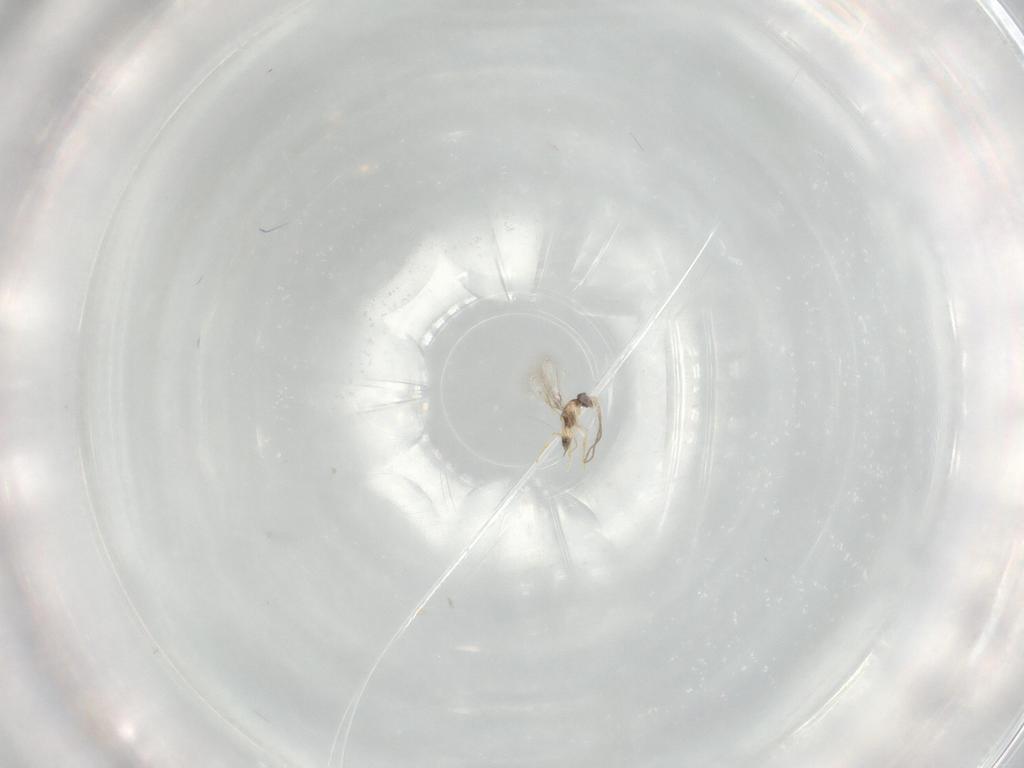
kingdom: Animalia
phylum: Arthropoda
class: Insecta
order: Hymenoptera
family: Mymaridae
